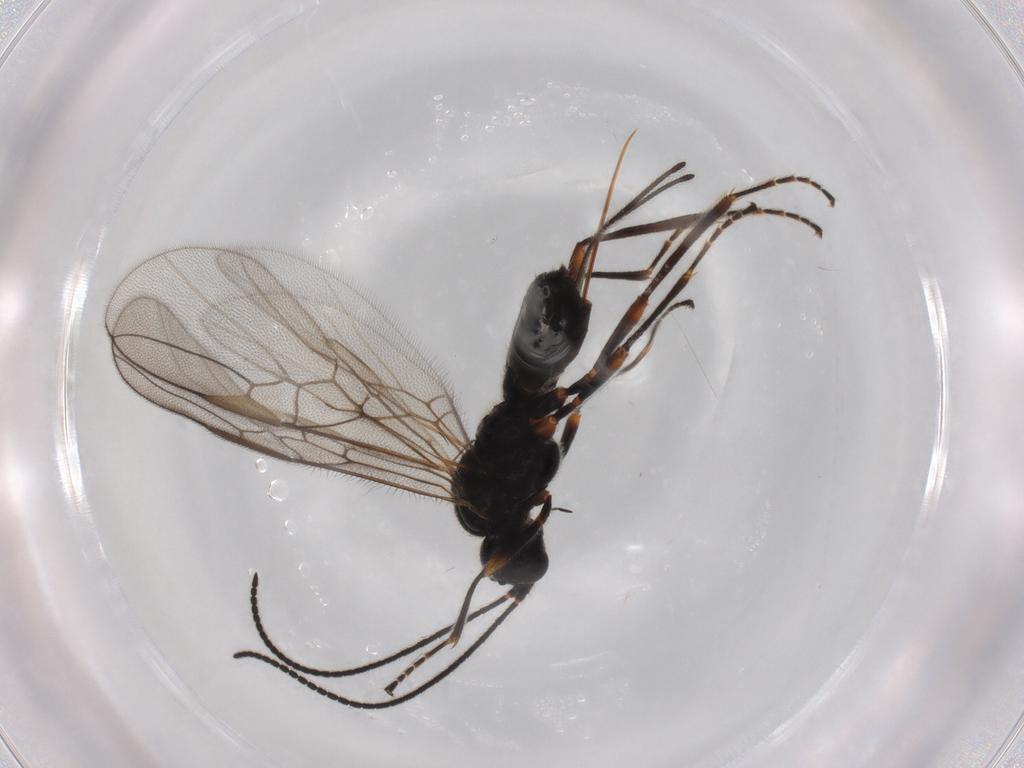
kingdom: Animalia
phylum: Arthropoda
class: Insecta
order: Hymenoptera
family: Braconidae
